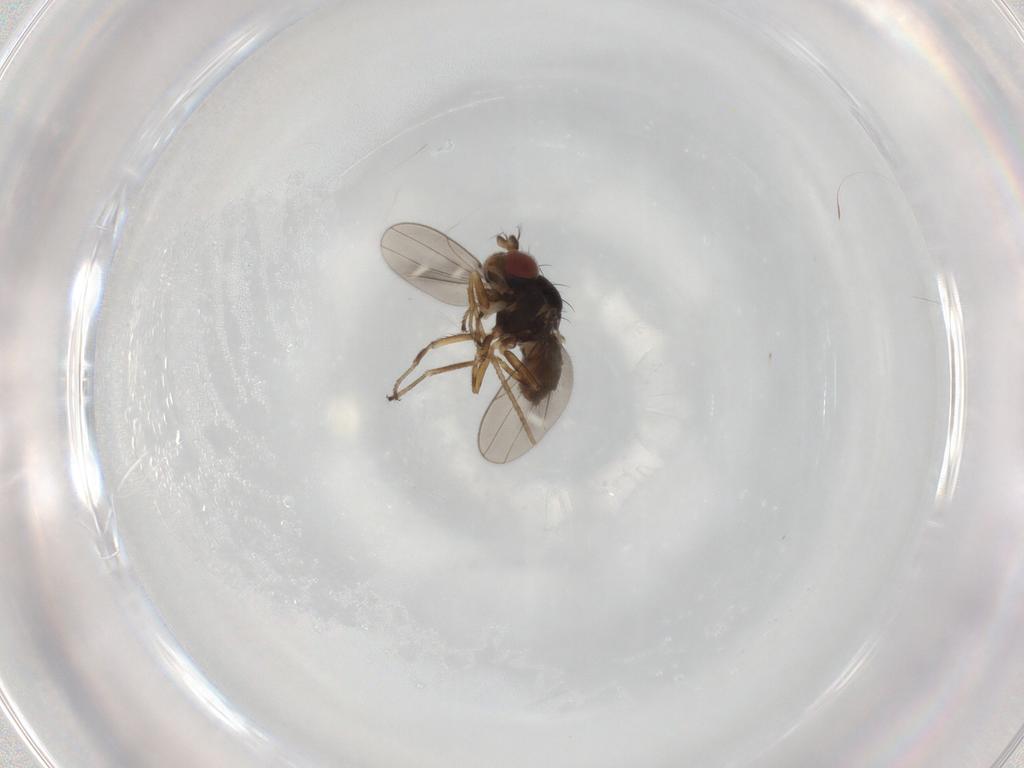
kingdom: Animalia
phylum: Arthropoda
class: Insecta
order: Diptera
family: Ephydridae
